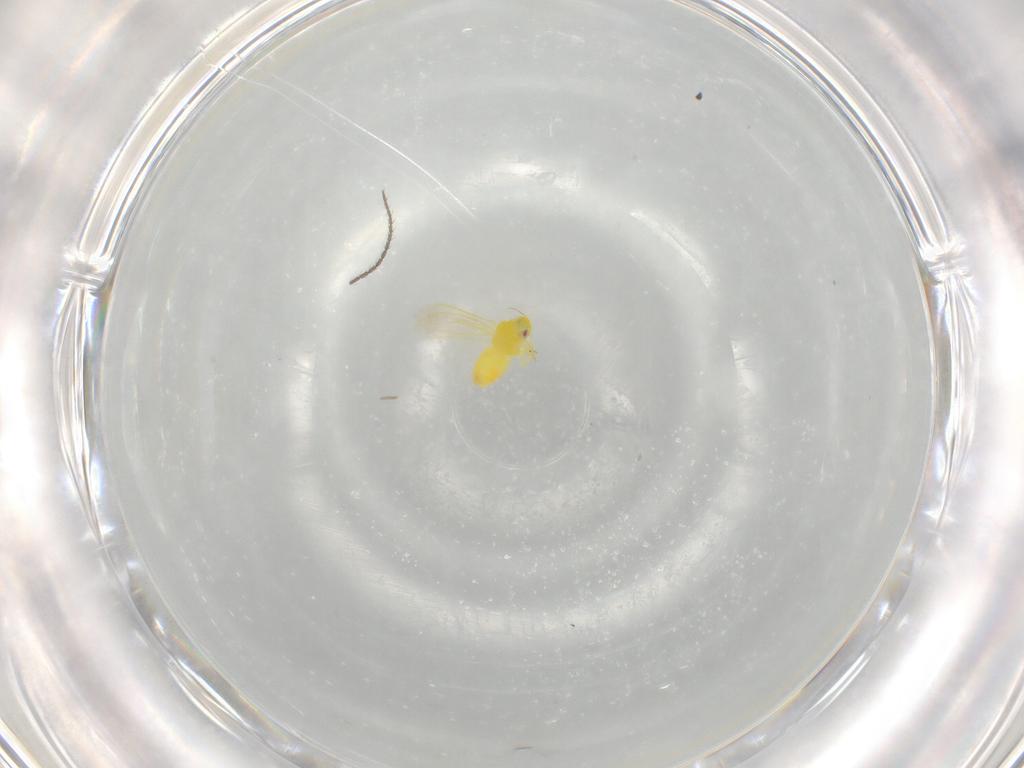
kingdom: Animalia
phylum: Arthropoda
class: Insecta
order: Hemiptera
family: Aleyrodidae
